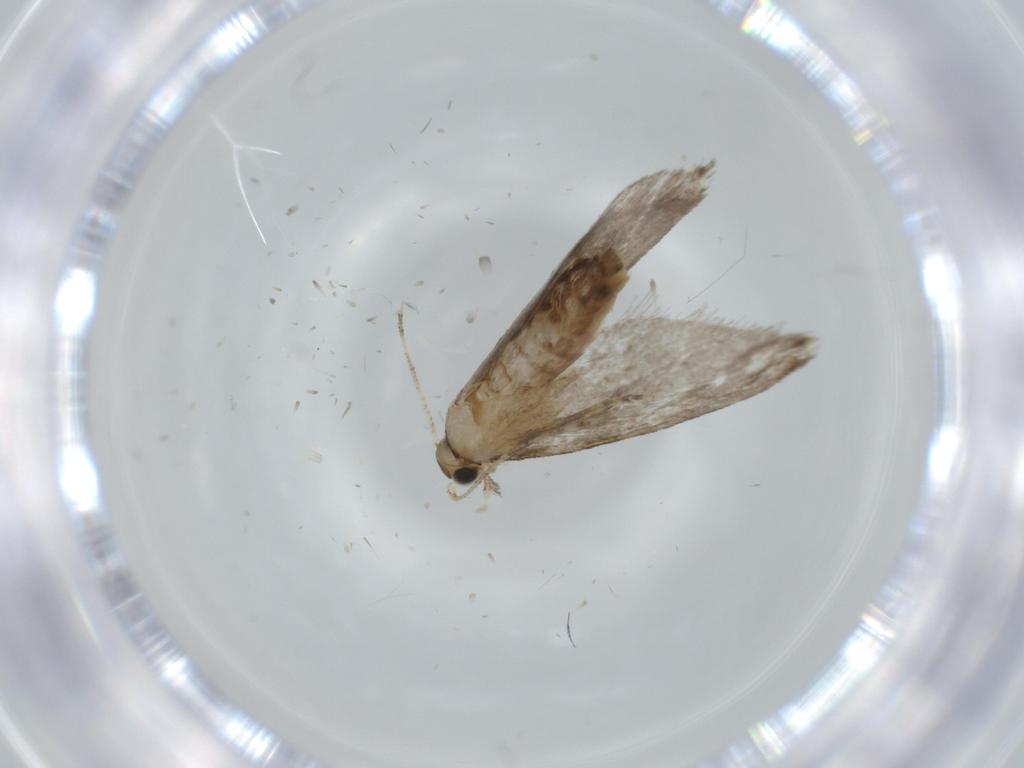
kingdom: Animalia
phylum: Arthropoda
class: Insecta
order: Lepidoptera
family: Tineidae
